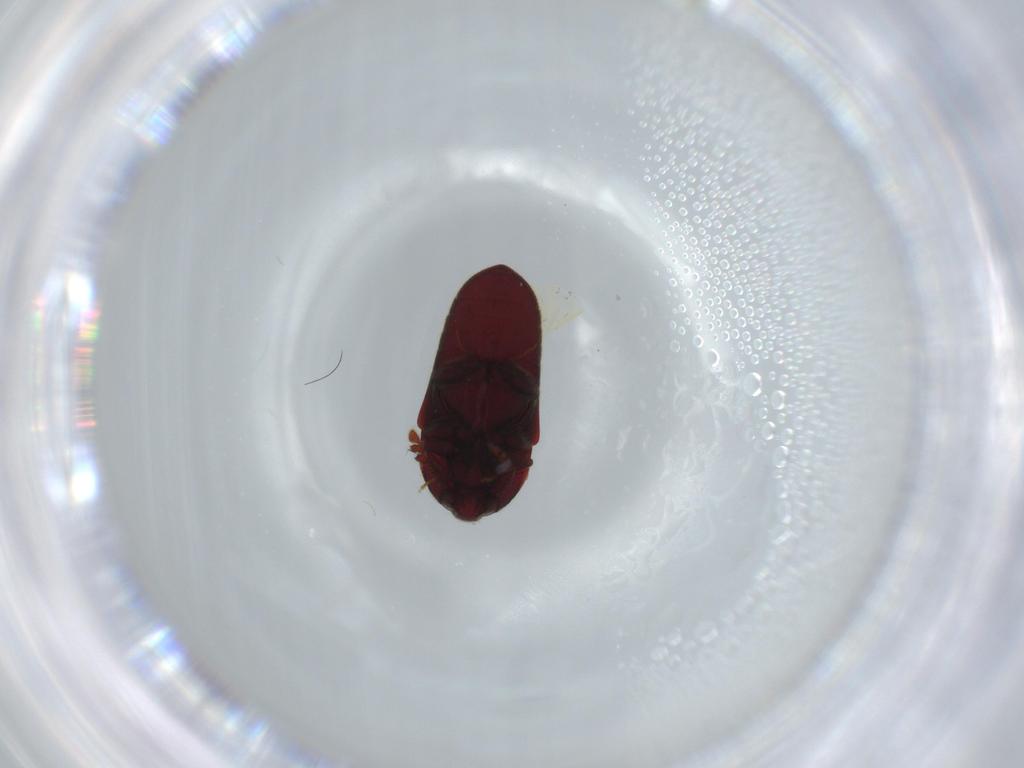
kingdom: Animalia
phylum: Arthropoda
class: Insecta
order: Coleoptera
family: Throscidae
